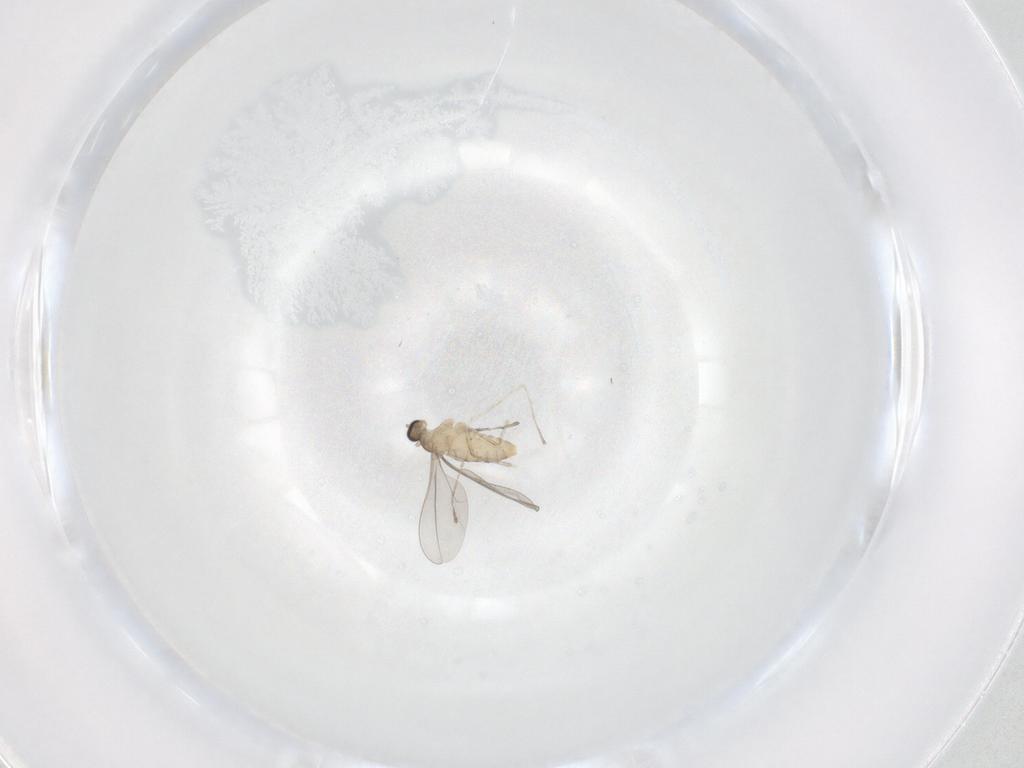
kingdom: Animalia
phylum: Arthropoda
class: Insecta
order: Diptera
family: Cecidomyiidae
